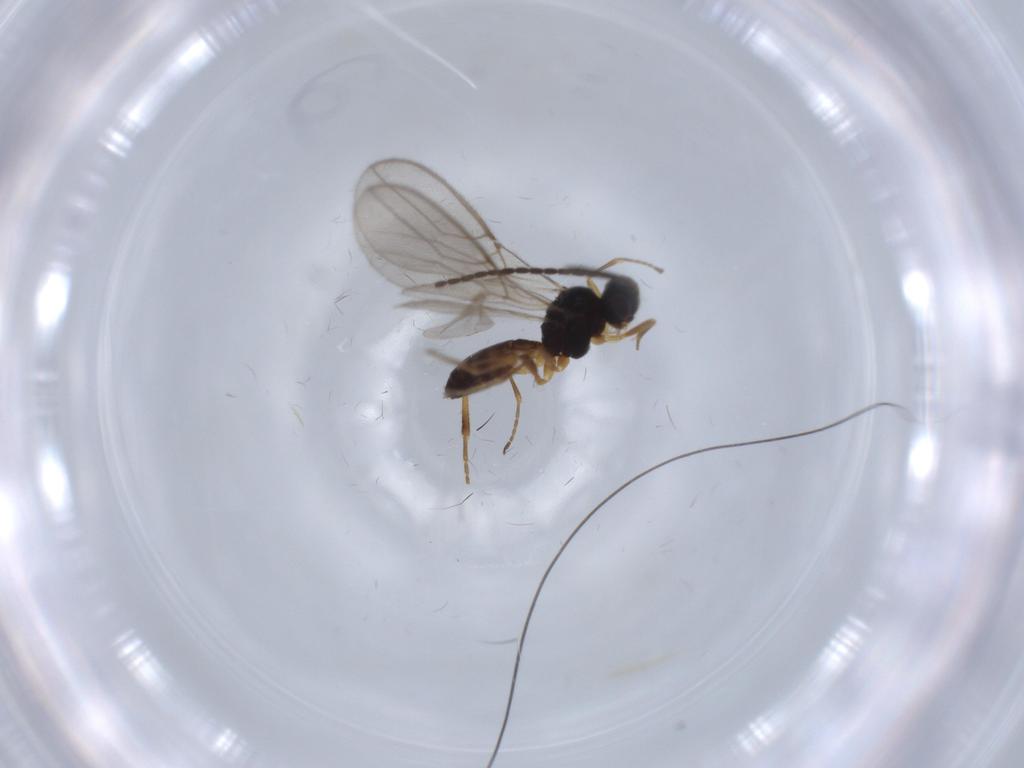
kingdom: Animalia
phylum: Arthropoda
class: Insecta
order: Hymenoptera
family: Braconidae
